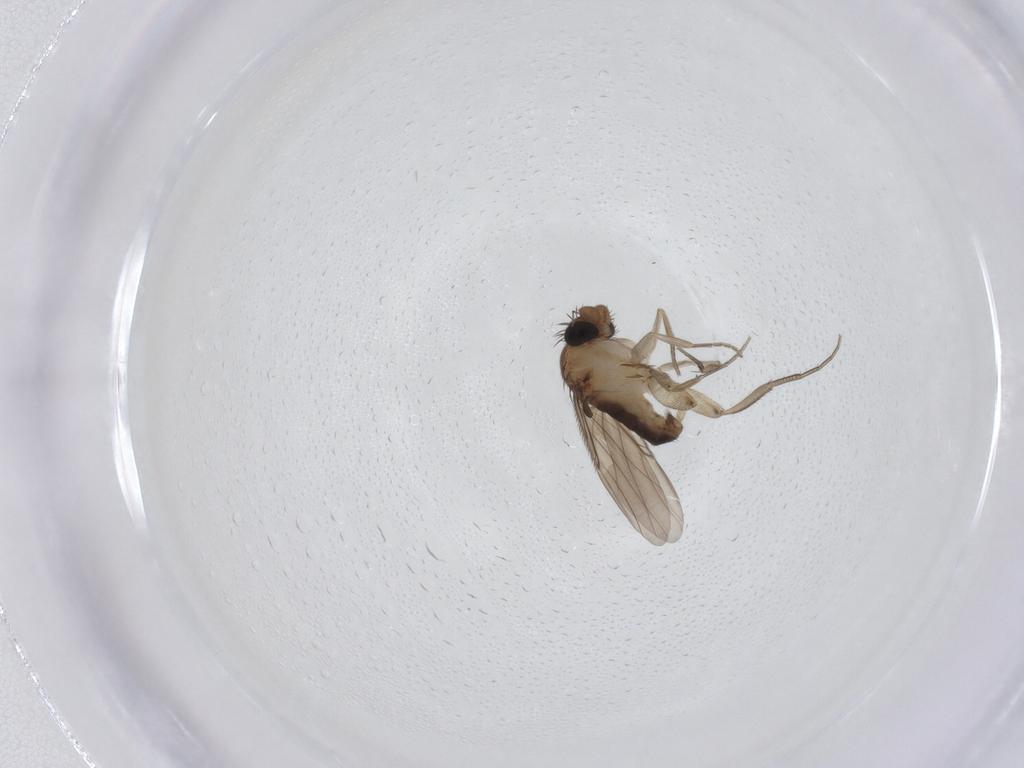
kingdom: Animalia
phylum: Arthropoda
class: Insecta
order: Diptera
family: Phoridae
